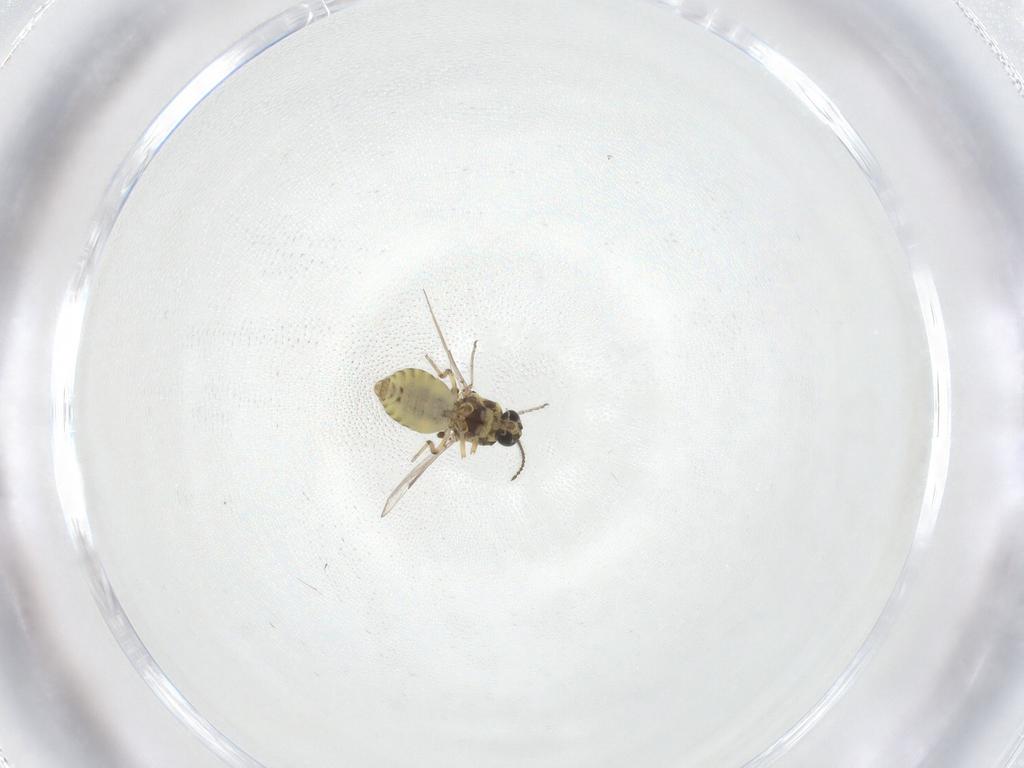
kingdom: Animalia
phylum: Arthropoda
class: Insecta
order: Diptera
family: Ceratopogonidae
